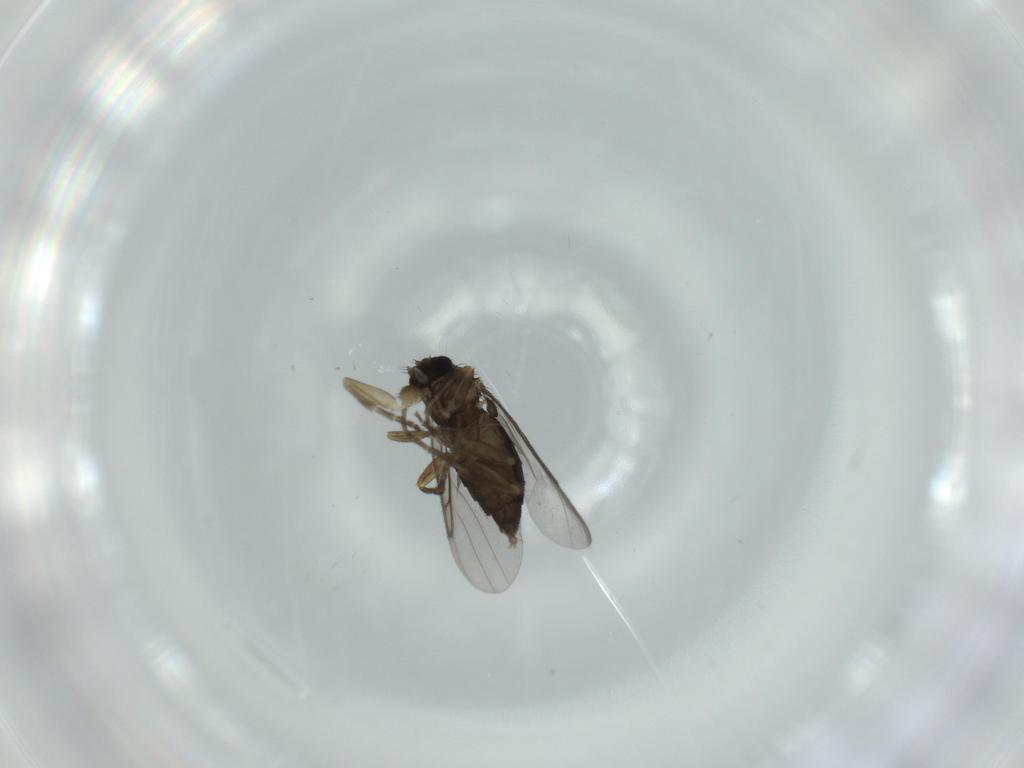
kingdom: Animalia
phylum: Arthropoda
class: Insecta
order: Diptera
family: Phoridae
